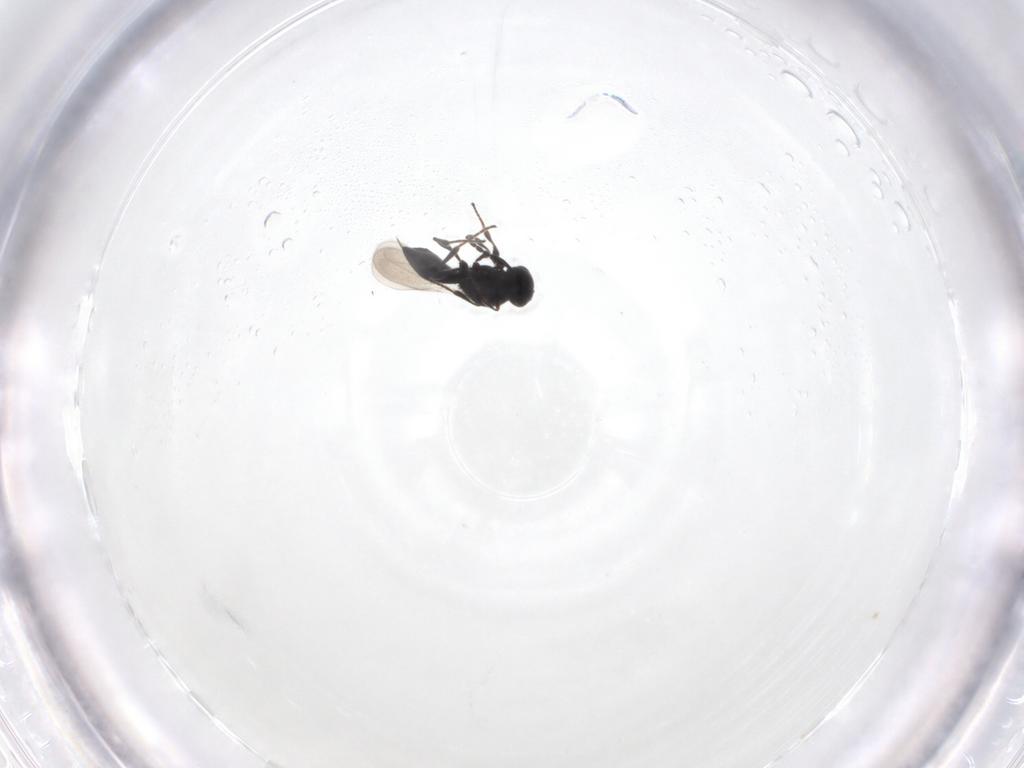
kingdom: Animalia
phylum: Arthropoda
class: Insecta
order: Hymenoptera
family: Platygastridae
